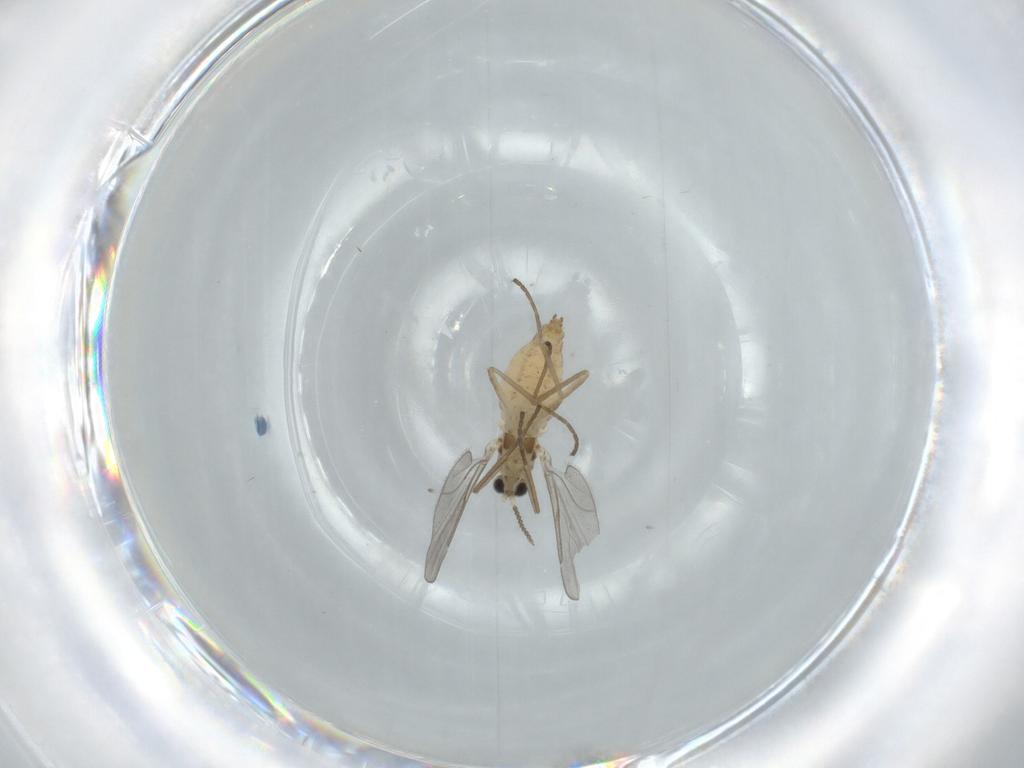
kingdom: Animalia
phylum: Arthropoda
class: Insecta
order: Diptera
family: Cecidomyiidae
